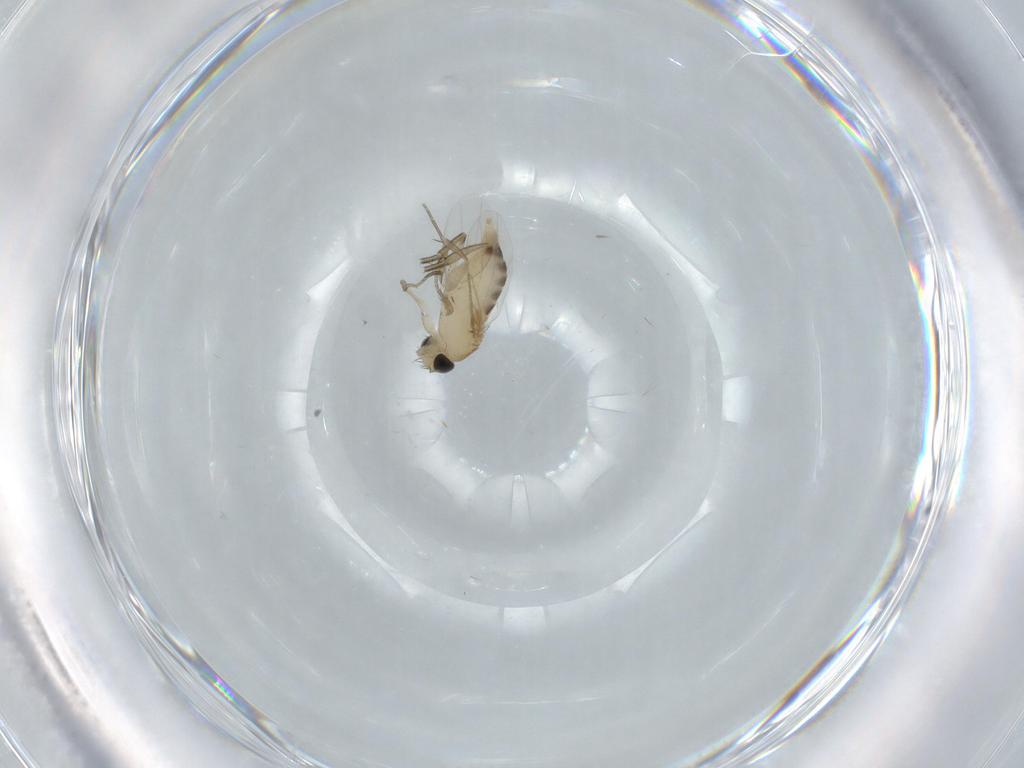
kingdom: Animalia
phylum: Arthropoda
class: Insecta
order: Diptera
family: Phoridae
